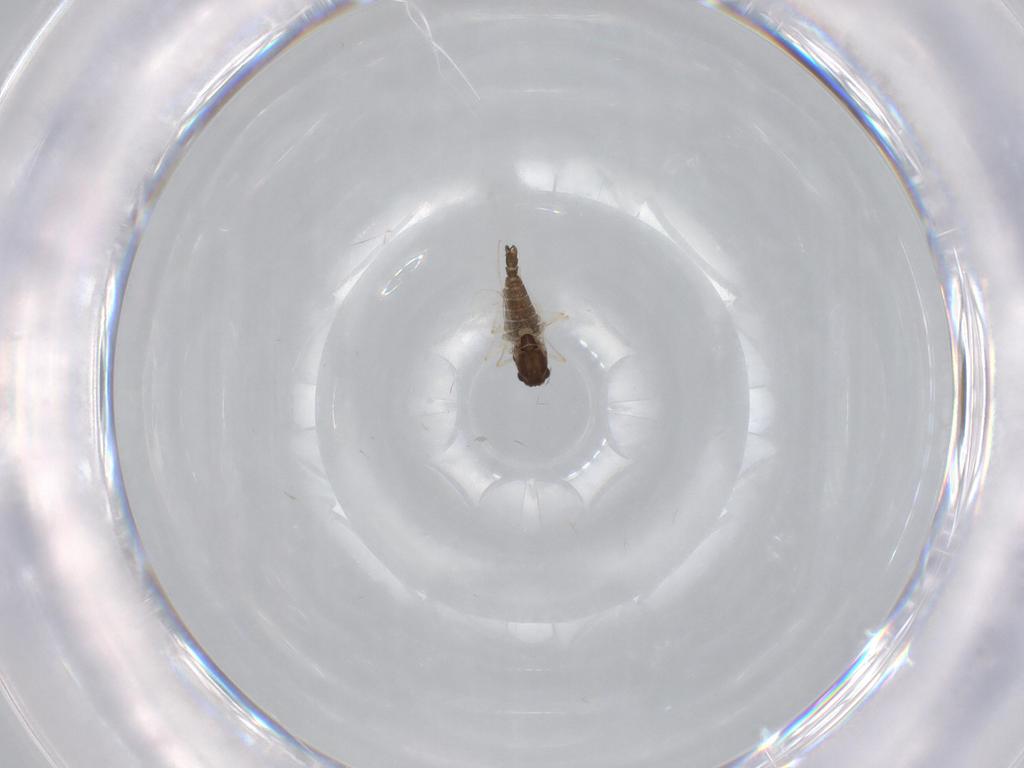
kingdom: Animalia
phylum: Arthropoda
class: Insecta
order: Diptera
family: Chironomidae
